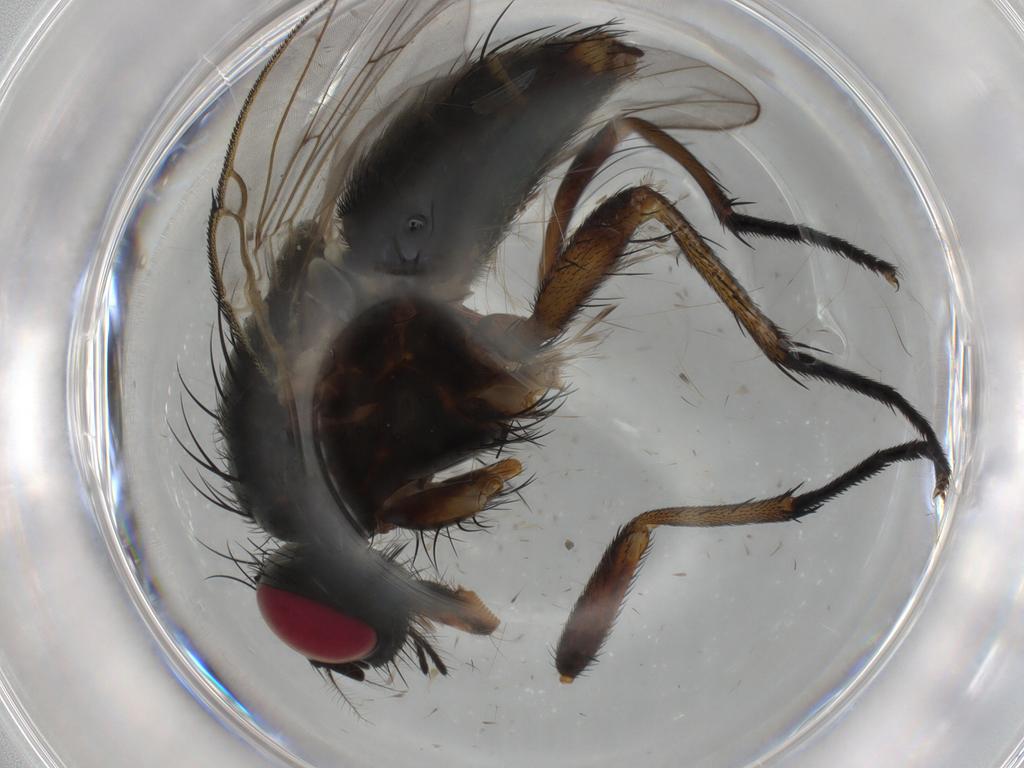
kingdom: Animalia
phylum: Arthropoda
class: Insecta
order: Diptera
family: Muscidae
